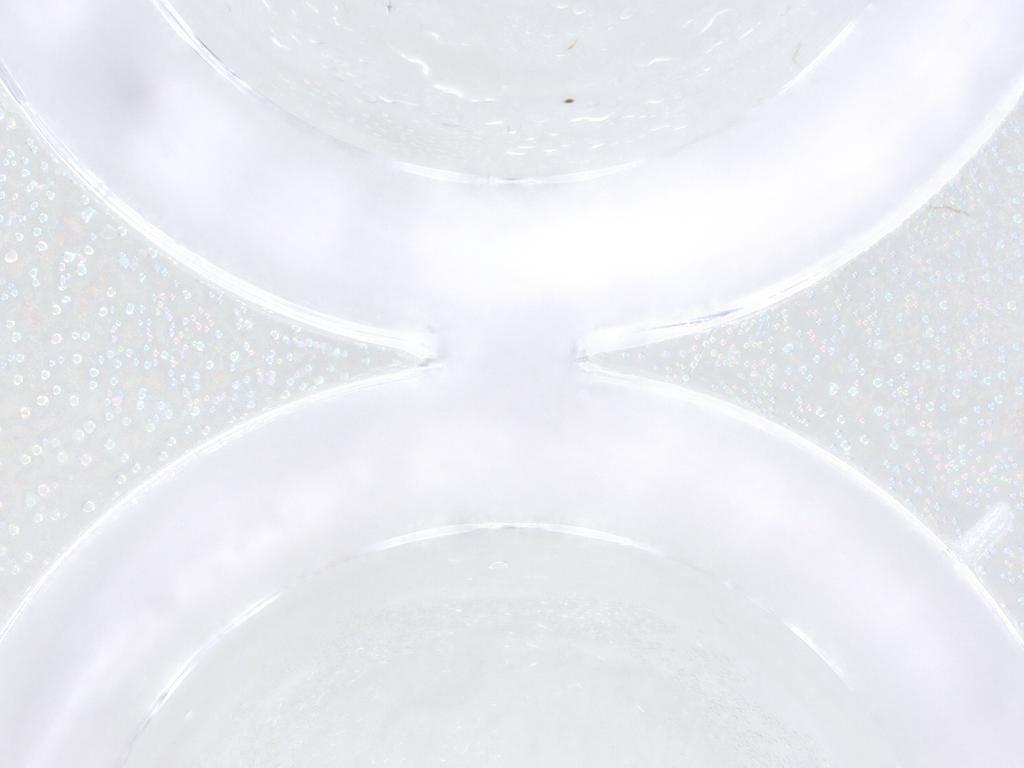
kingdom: Animalia
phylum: Arthropoda
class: Insecta
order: Diptera
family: Psychodidae
